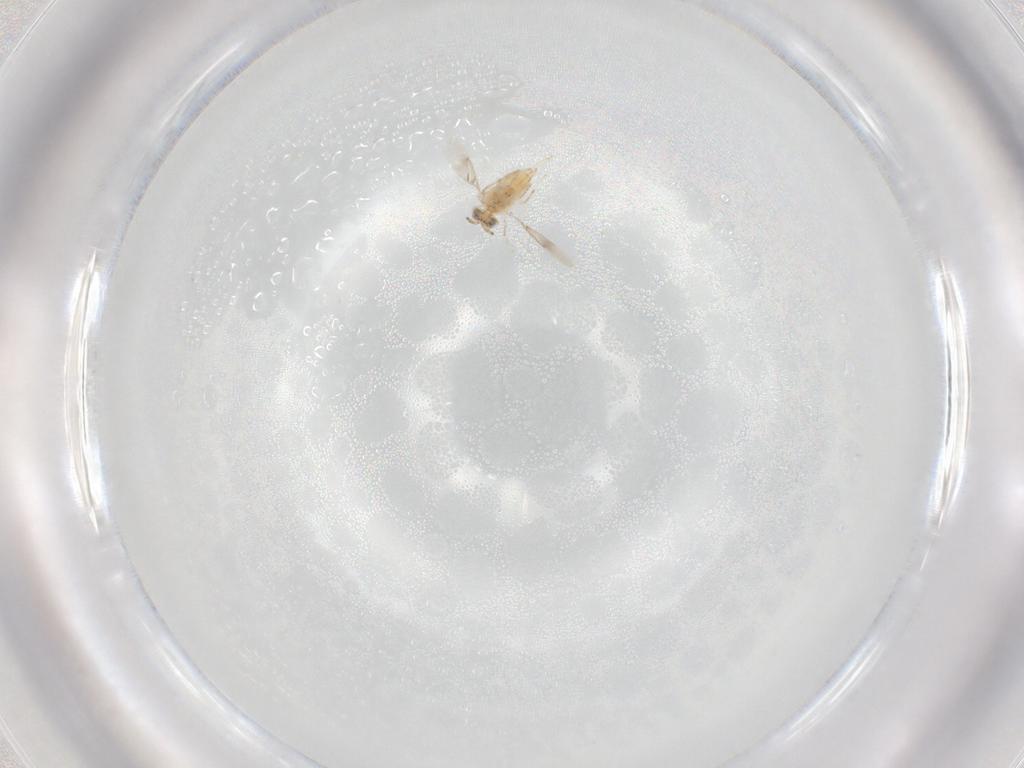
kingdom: Animalia
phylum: Arthropoda
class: Insecta
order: Hymenoptera
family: Aphelinidae
